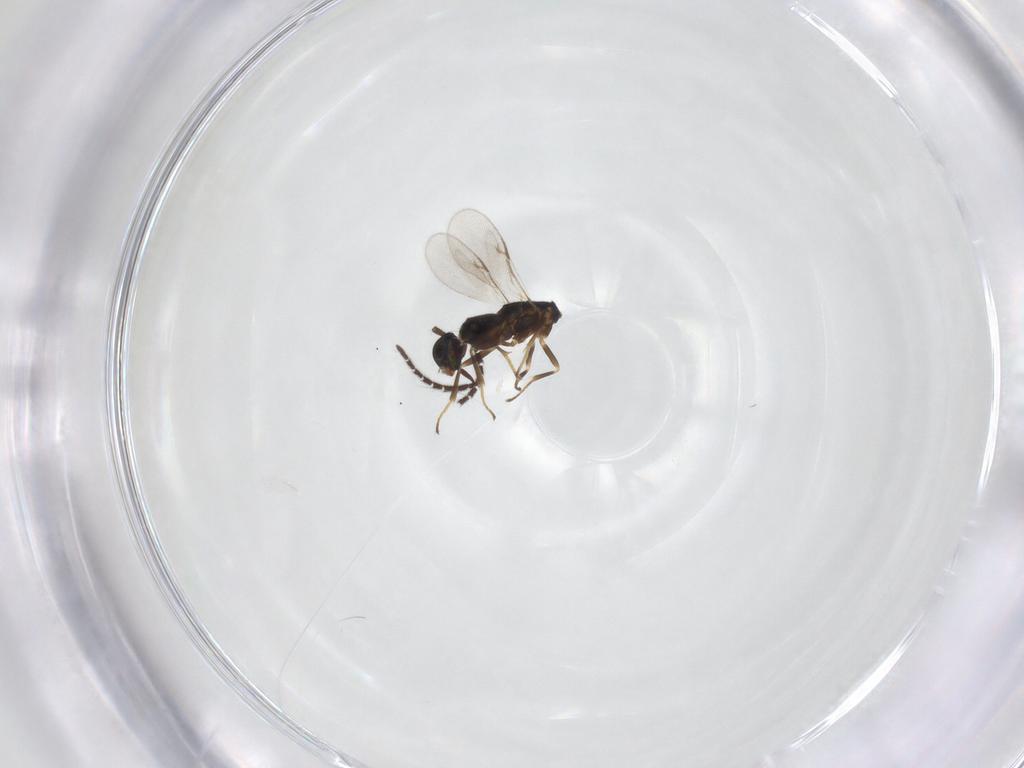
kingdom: Animalia
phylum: Arthropoda
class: Insecta
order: Hymenoptera
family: Encyrtidae
